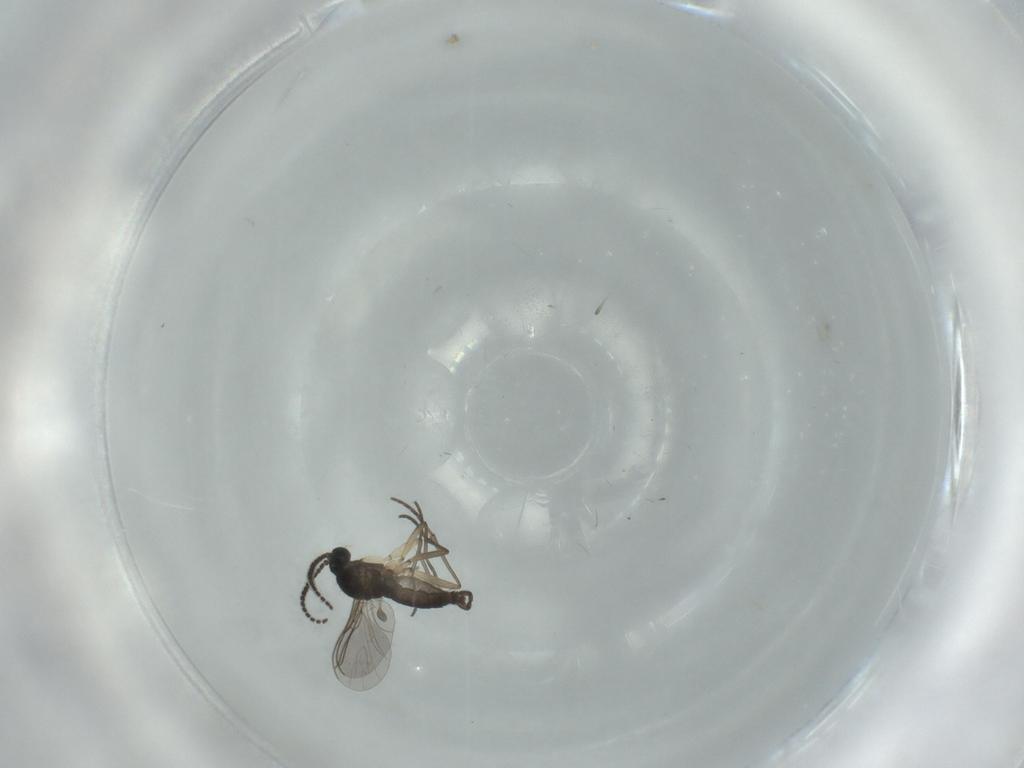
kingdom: Animalia
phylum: Arthropoda
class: Insecta
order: Diptera
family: Sciaridae
